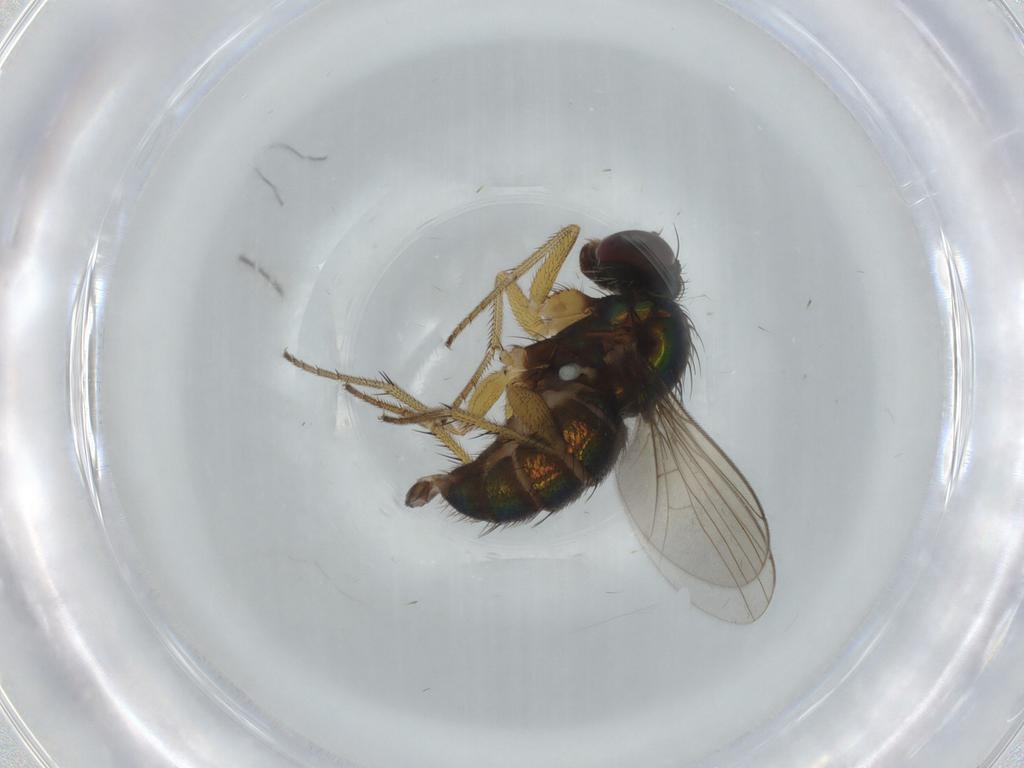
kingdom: Animalia
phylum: Arthropoda
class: Insecta
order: Diptera
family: Dolichopodidae
